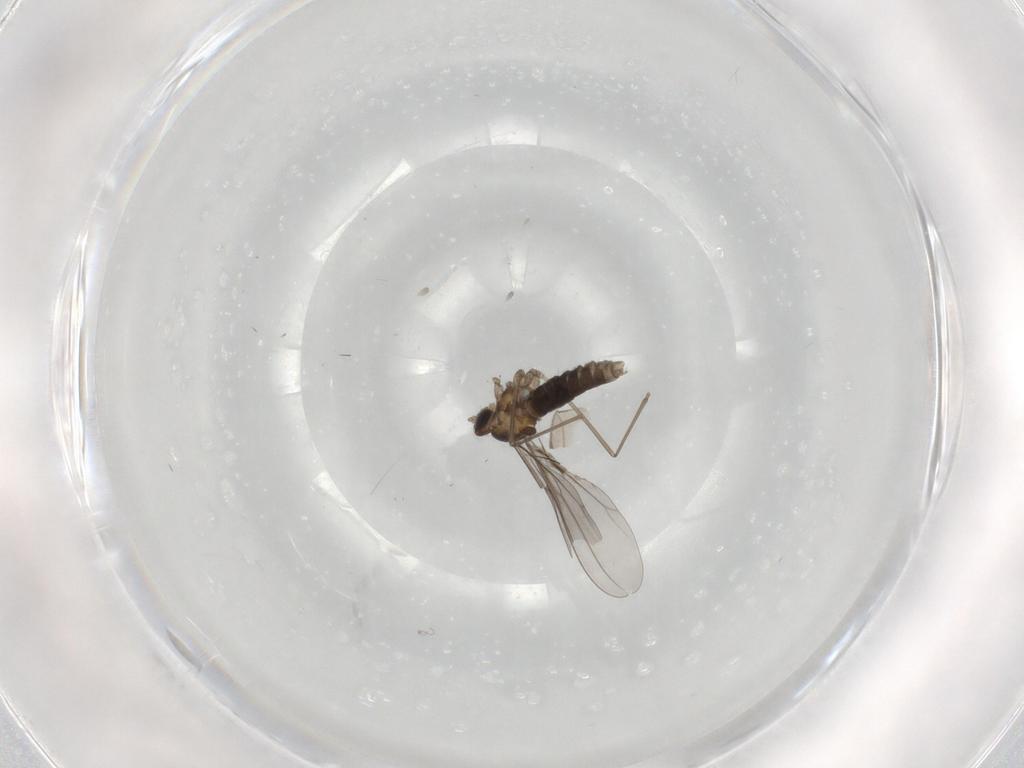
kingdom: Animalia
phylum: Arthropoda
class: Insecta
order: Diptera
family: Cecidomyiidae
